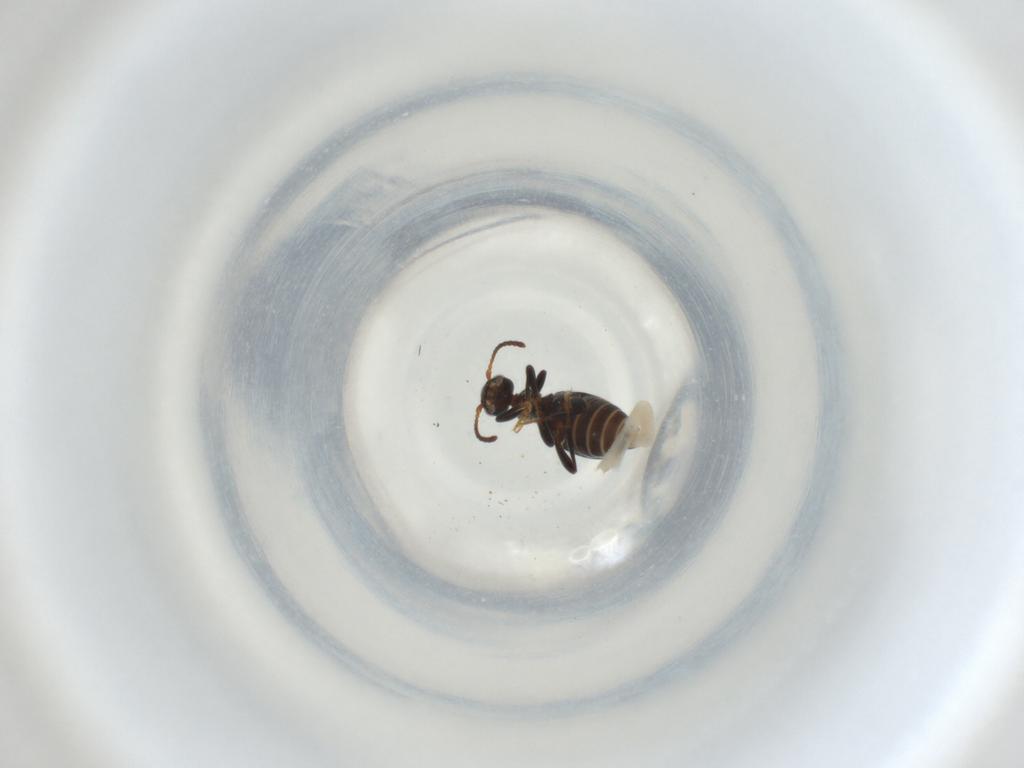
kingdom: Animalia
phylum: Arthropoda
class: Insecta
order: Coleoptera
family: Anthicidae
